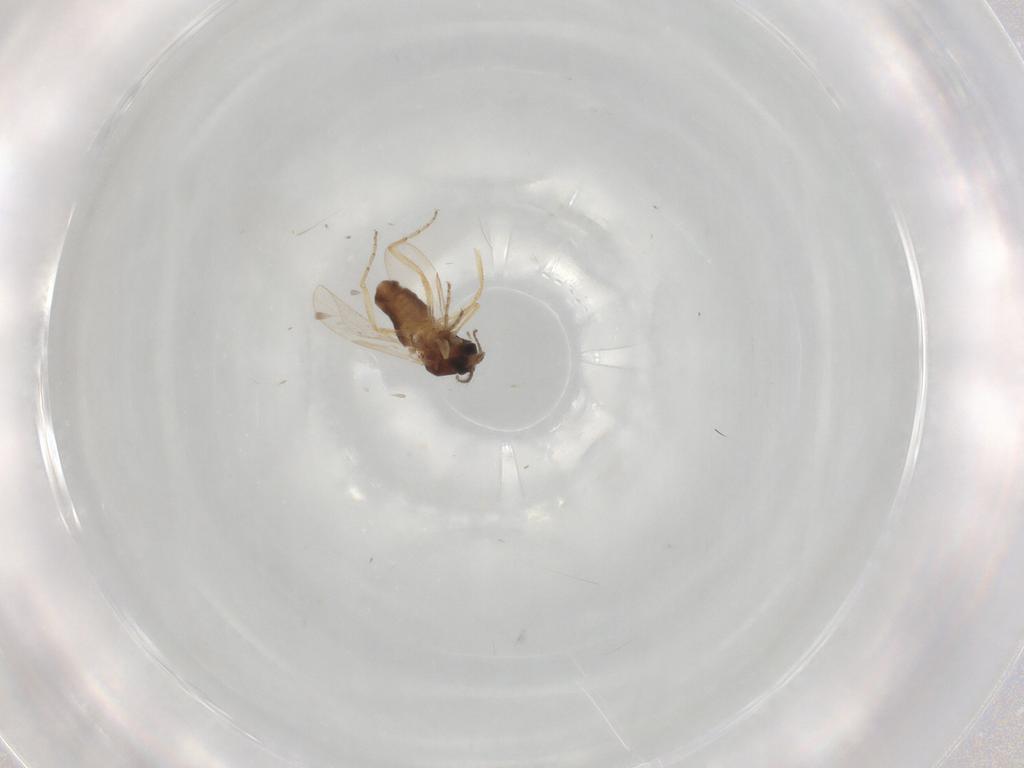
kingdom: Animalia
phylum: Arthropoda
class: Insecta
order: Diptera
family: Ceratopogonidae
